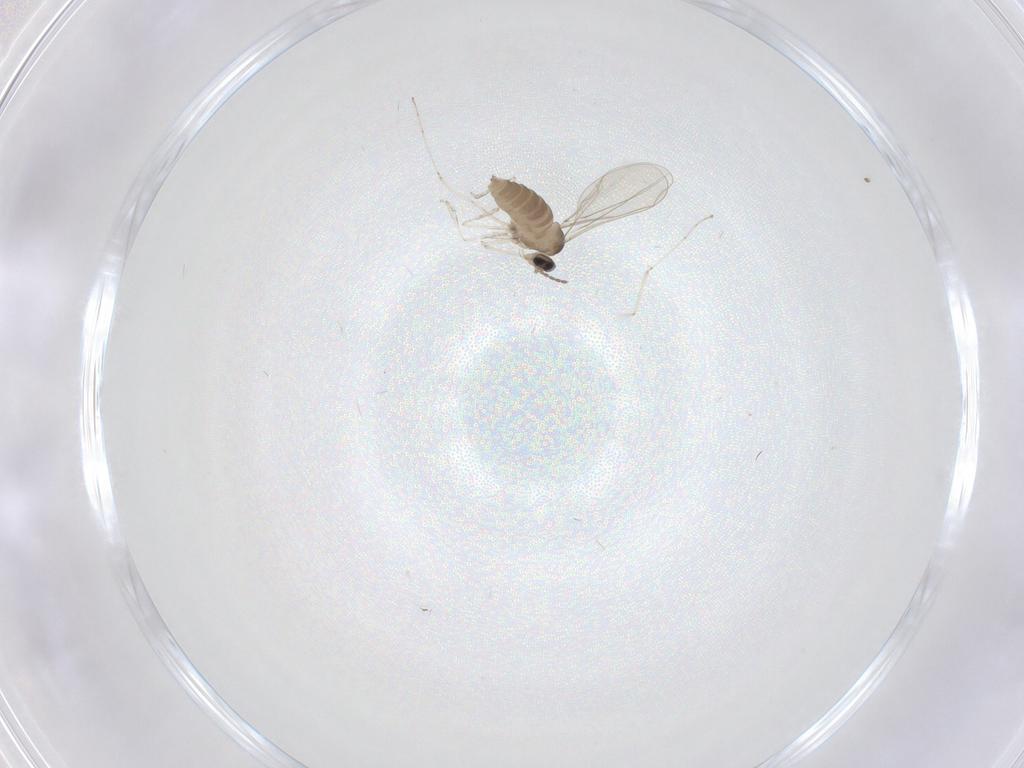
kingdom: Animalia
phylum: Arthropoda
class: Insecta
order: Diptera
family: Cecidomyiidae
